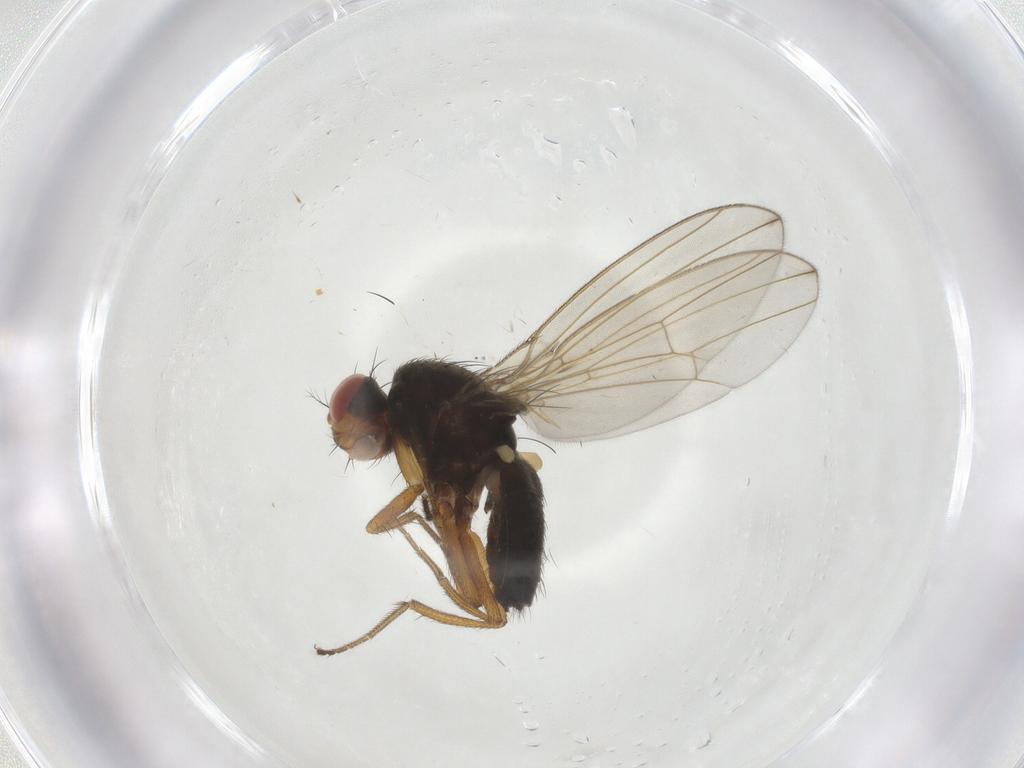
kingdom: Animalia
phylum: Arthropoda
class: Insecta
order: Diptera
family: Drosophilidae
